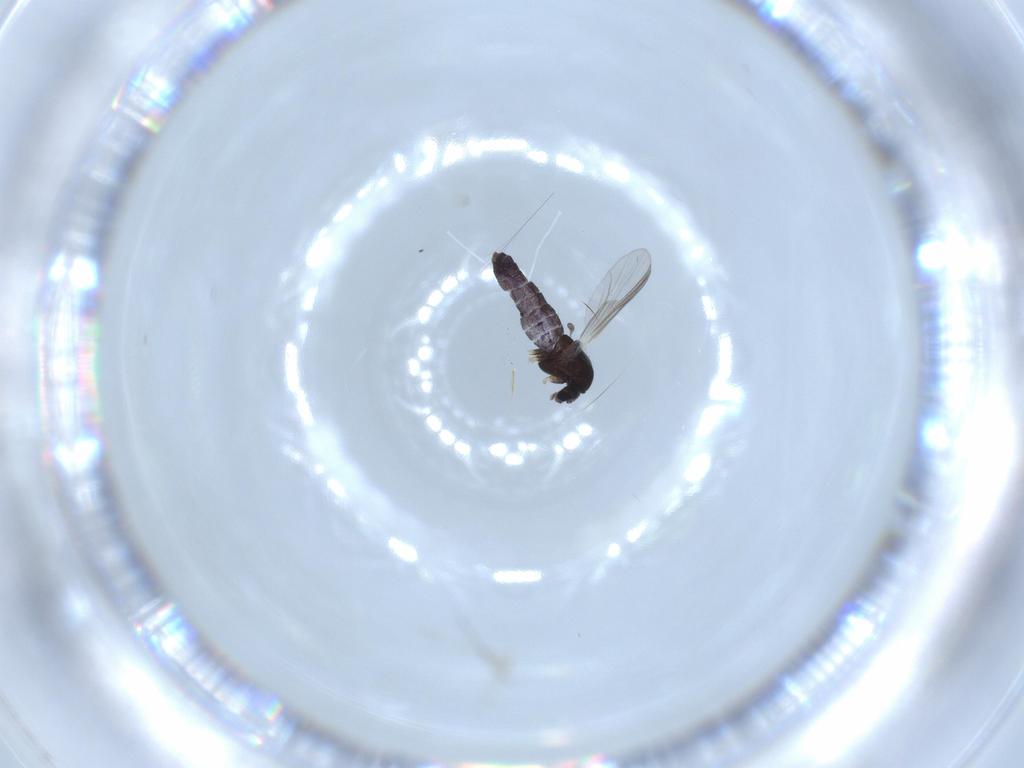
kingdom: Animalia
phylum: Arthropoda
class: Insecta
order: Diptera
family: Chironomidae
